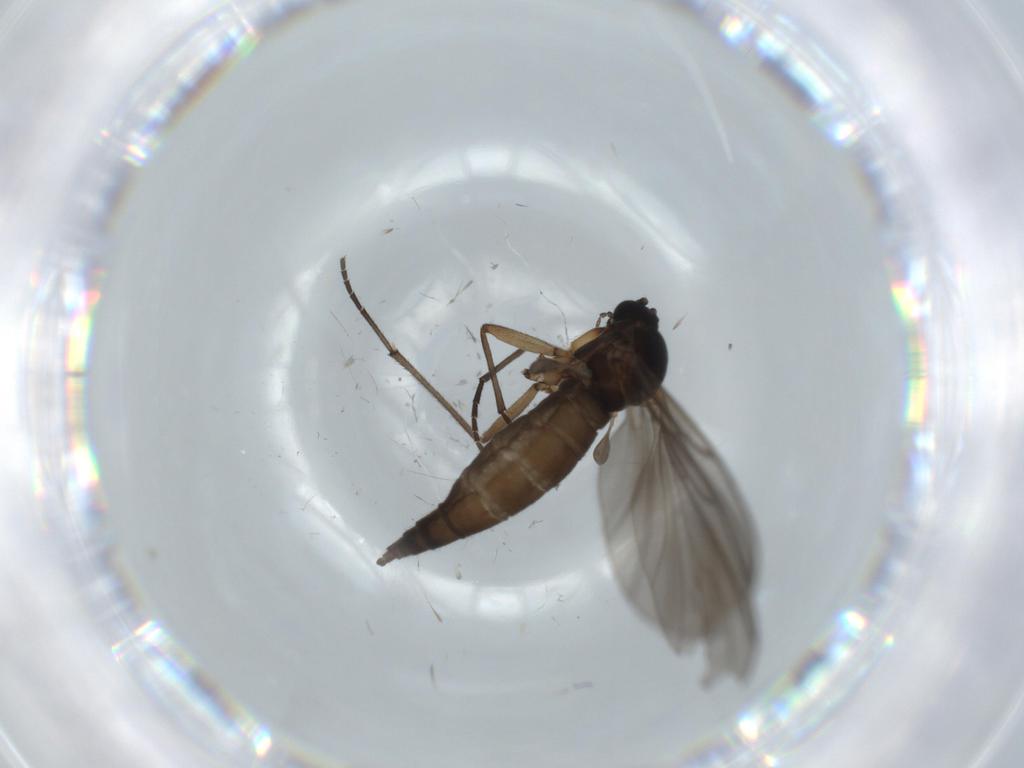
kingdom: Animalia
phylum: Arthropoda
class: Insecta
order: Diptera
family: Sciaridae
